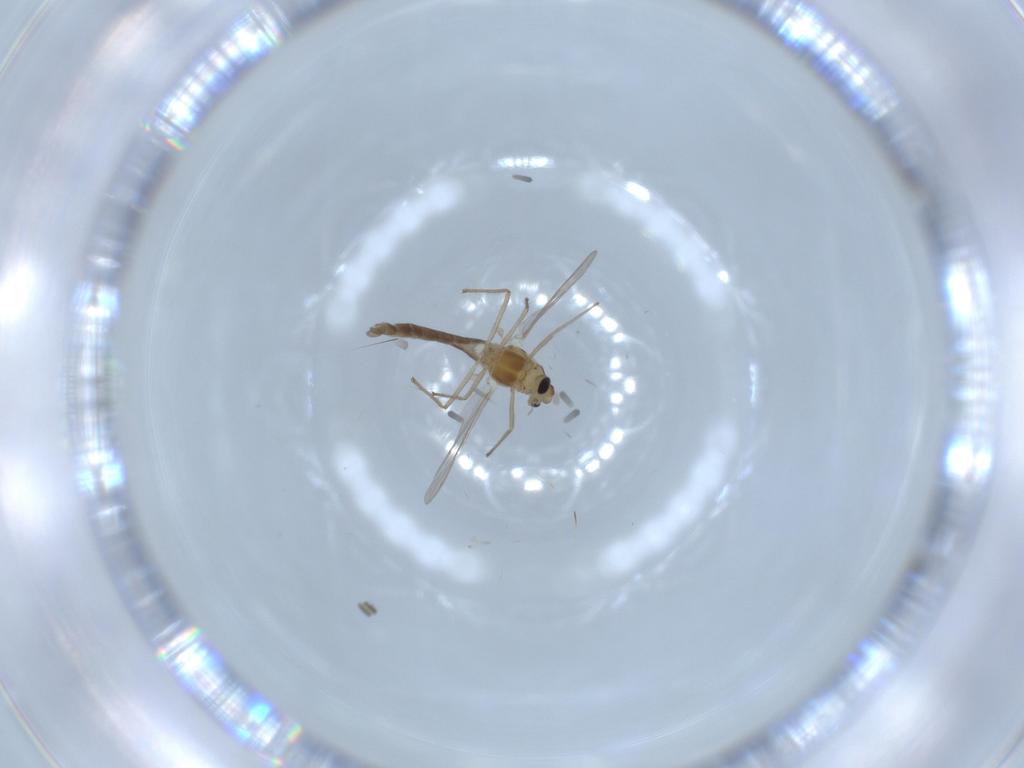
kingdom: Animalia
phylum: Arthropoda
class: Insecta
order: Diptera
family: Chironomidae
